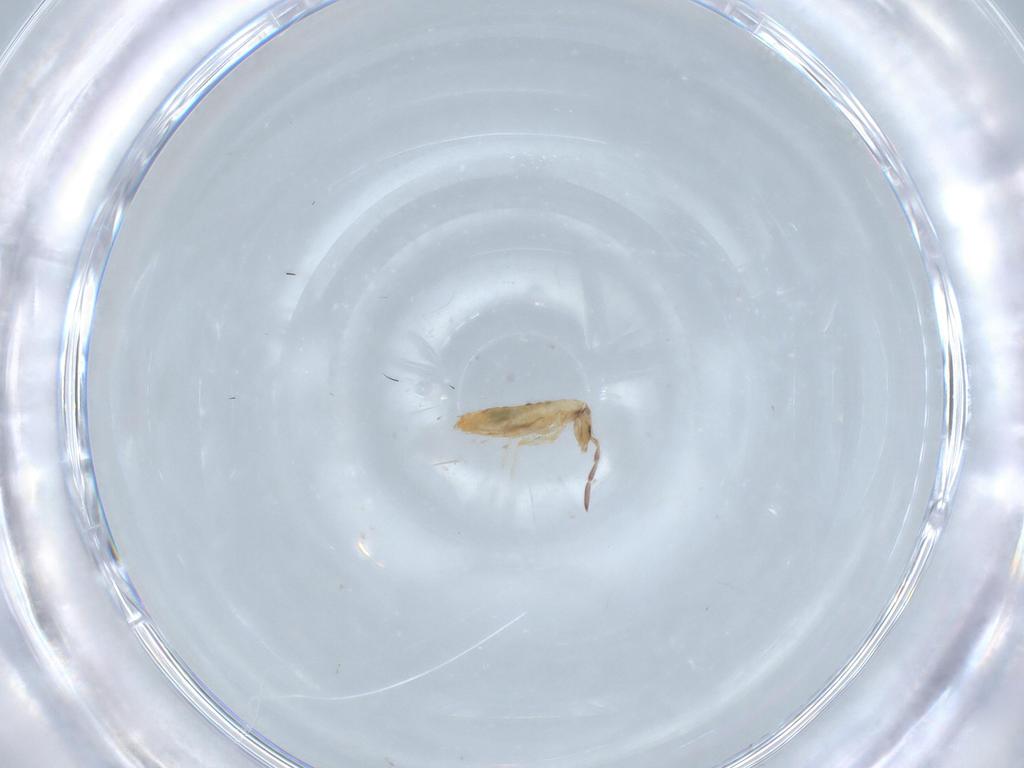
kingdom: Animalia
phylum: Arthropoda
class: Collembola
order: Entomobryomorpha
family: Entomobryidae
